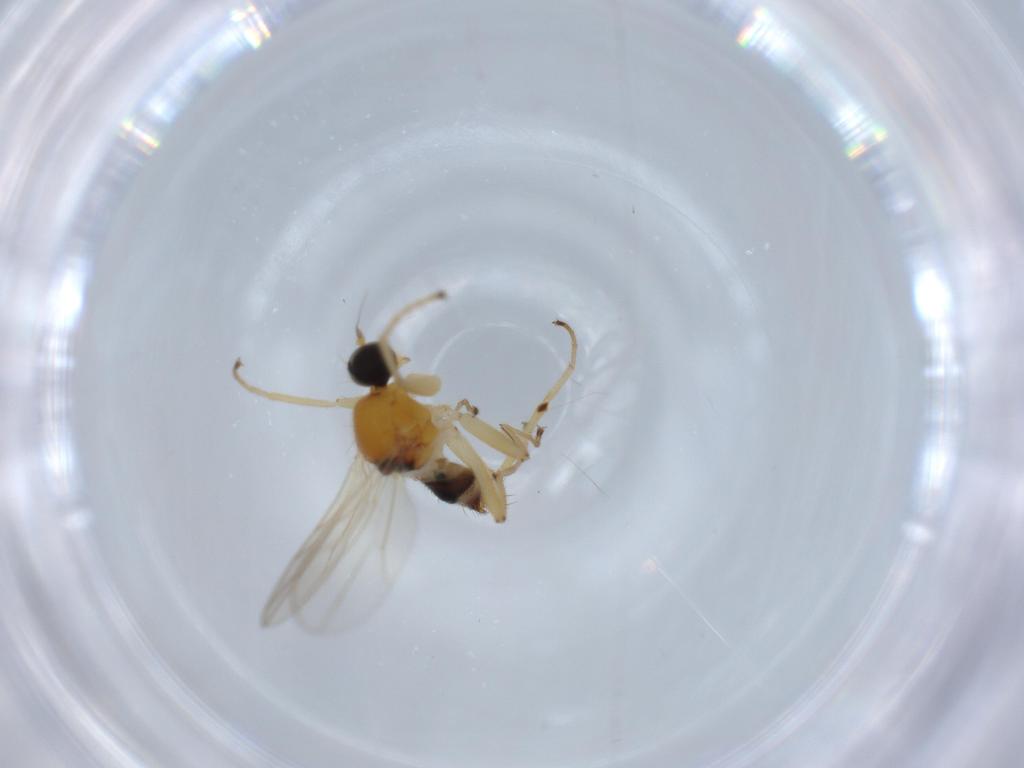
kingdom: Animalia
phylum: Arthropoda
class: Insecta
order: Diptera
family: Hybotidae
